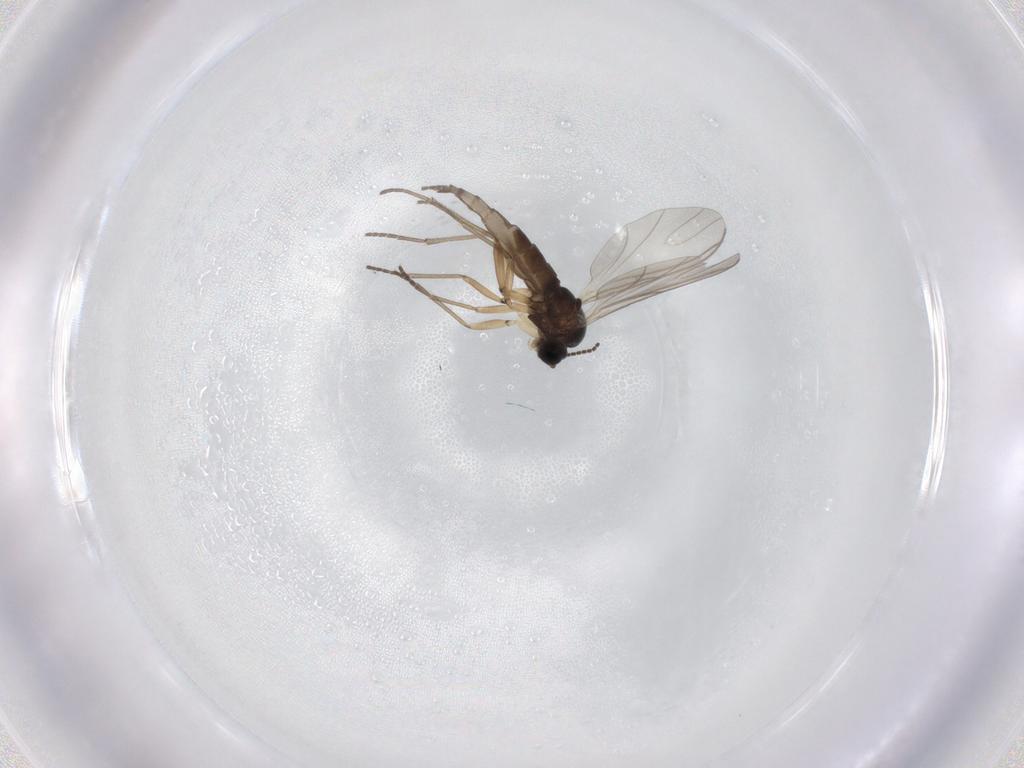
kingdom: Animalia
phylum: Arthropoda
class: Insecta
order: Diptera
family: Sciaridae
